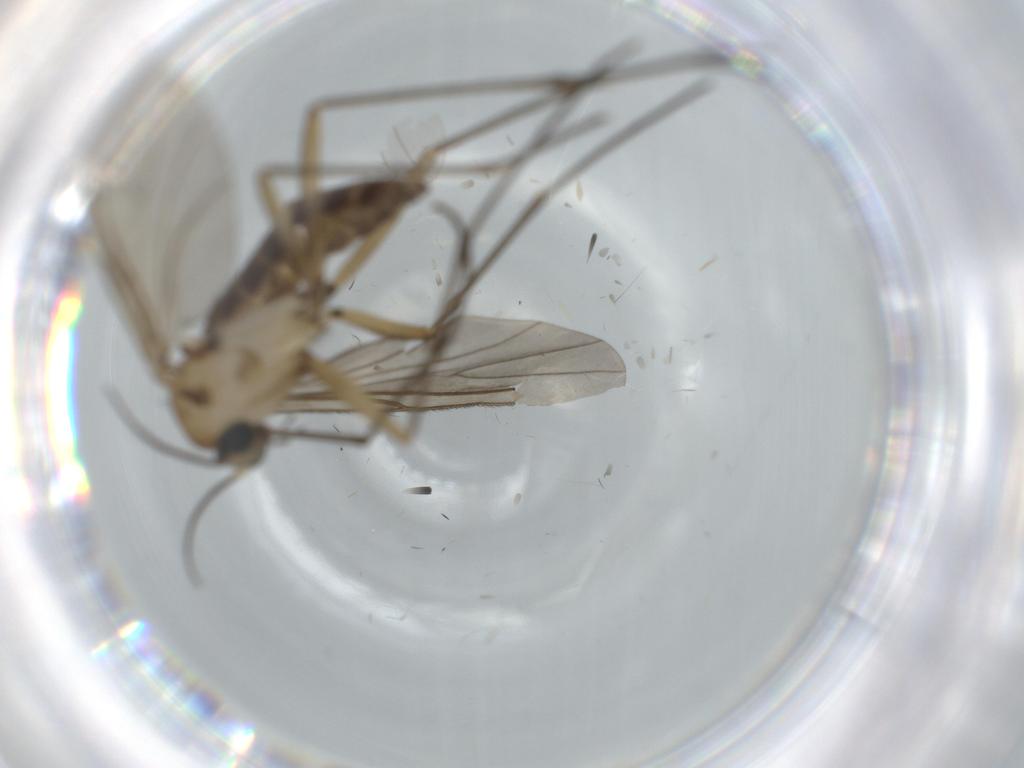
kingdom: Animalia
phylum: Arthropoda
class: Insecta
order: Diptera
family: Sciaridae
